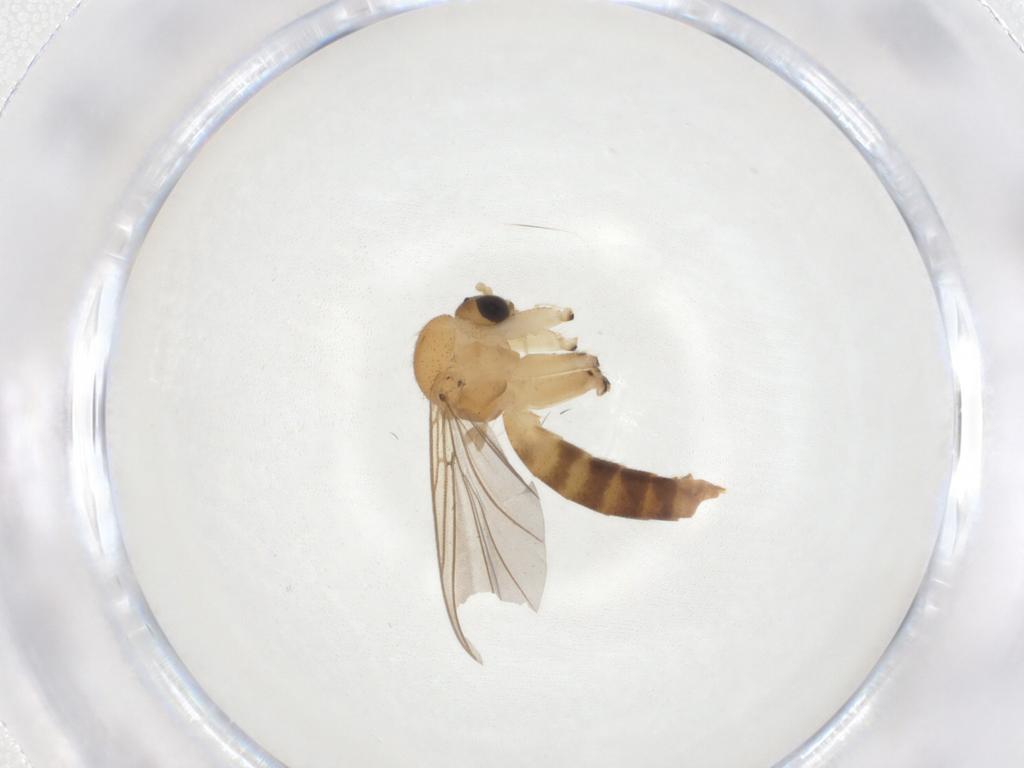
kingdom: Animalia
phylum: Arthropoda
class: Insecta
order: Diptera
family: Mycetophilidae
